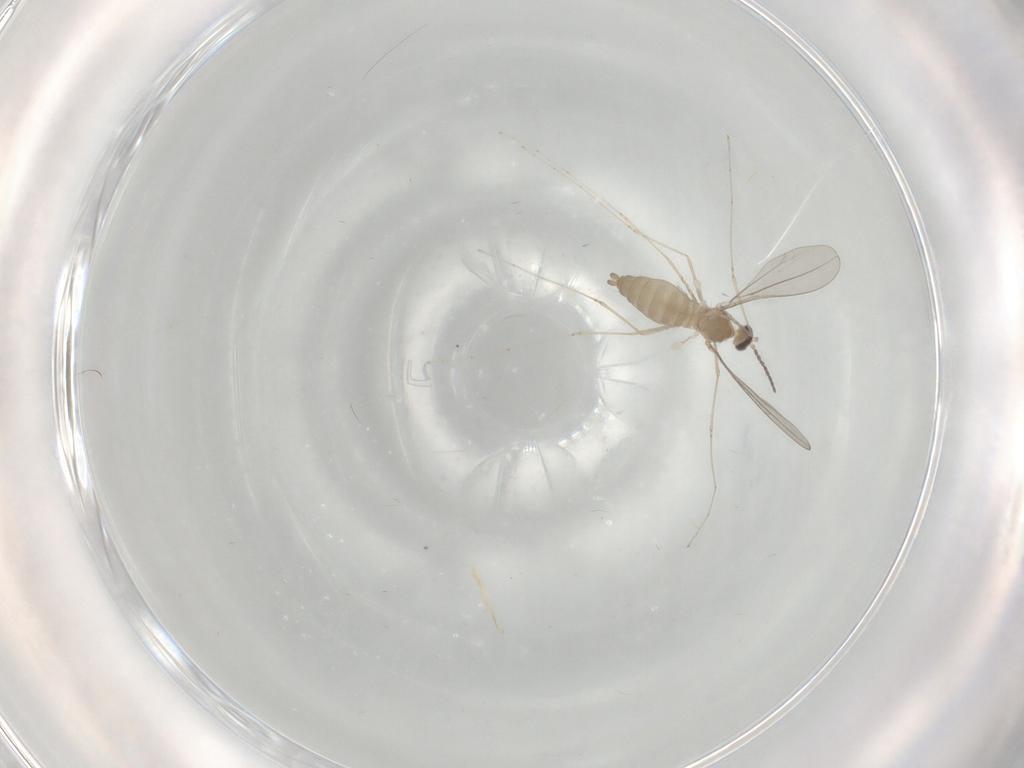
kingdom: Animalia
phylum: Arthropoda
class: Insecta
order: Diptera
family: Cecidomyiidae
